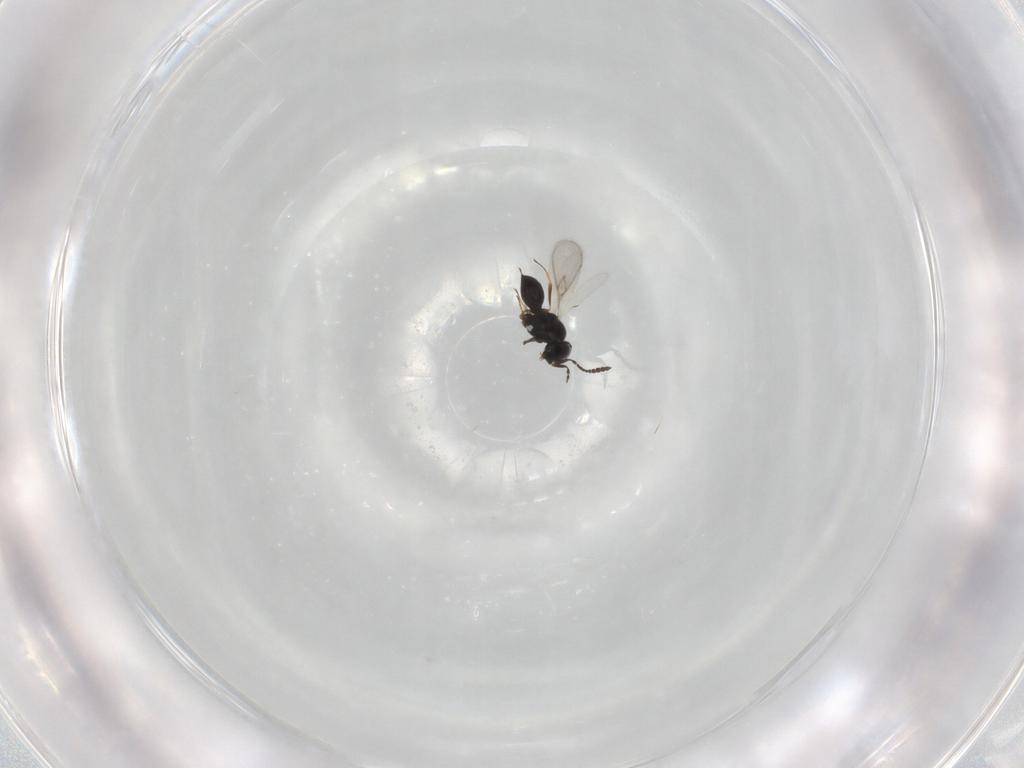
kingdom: Animalia
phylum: Arthropoda
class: Insecta
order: Hymenoptera
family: Scelionidae
